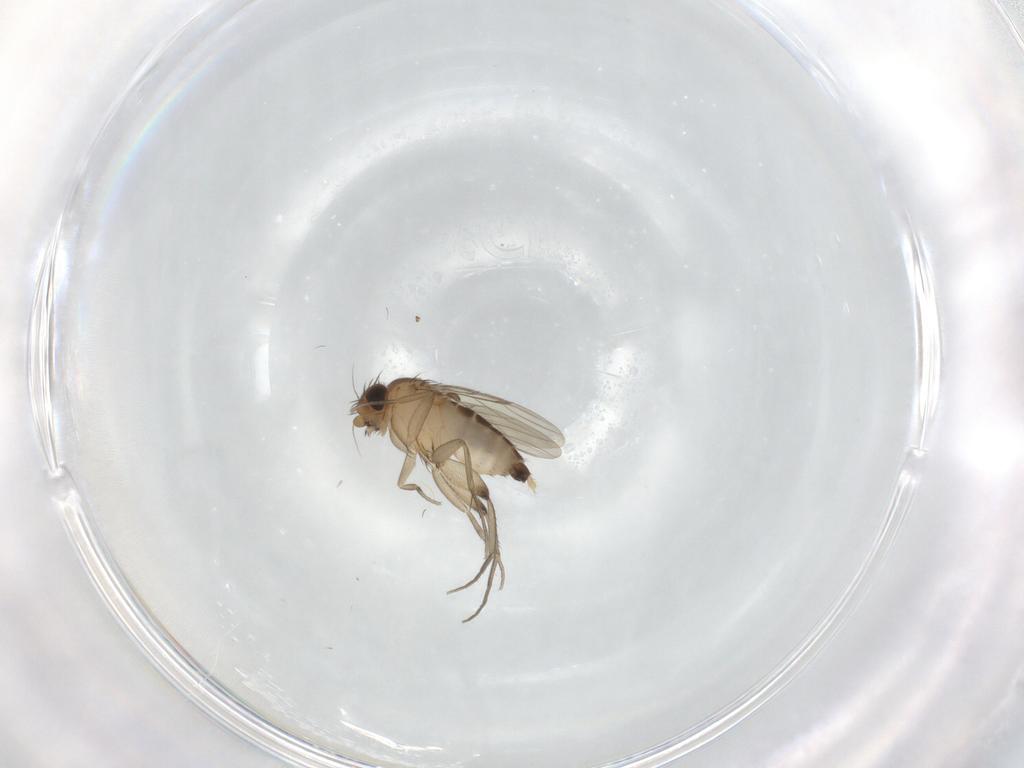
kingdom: Animalia
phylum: Arthropoda
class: Insecta
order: Diptera
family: Phoridae
